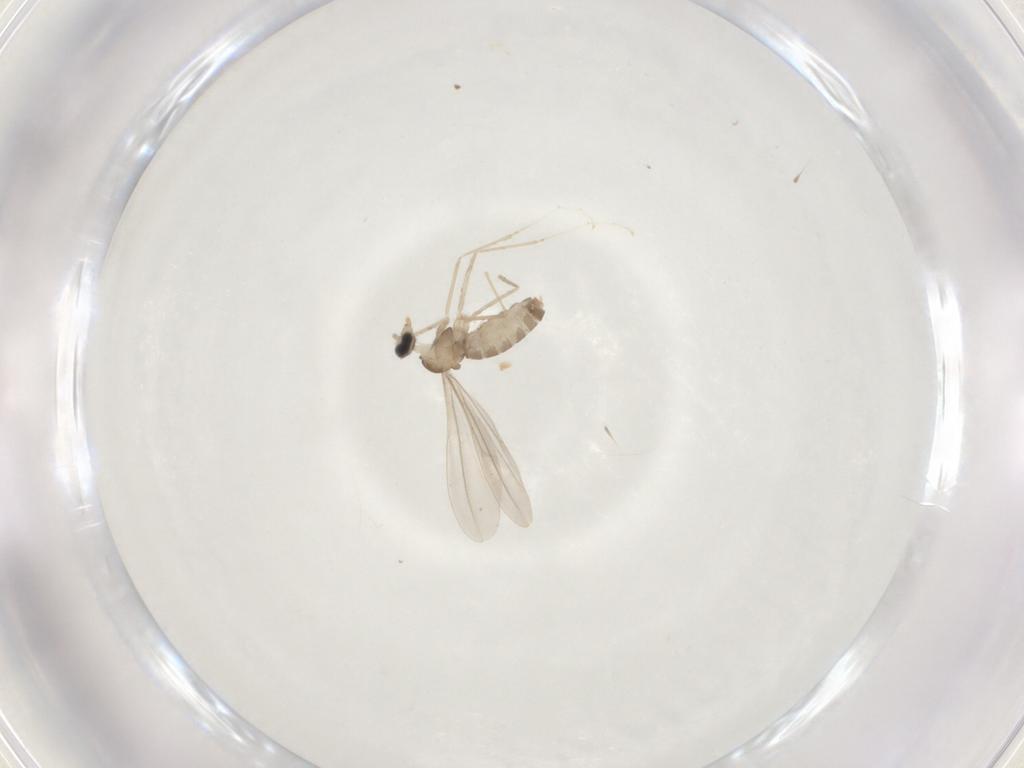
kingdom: Animalia
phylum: Arthropoda
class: Insecta
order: Diptera
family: Cecidomyiidae
